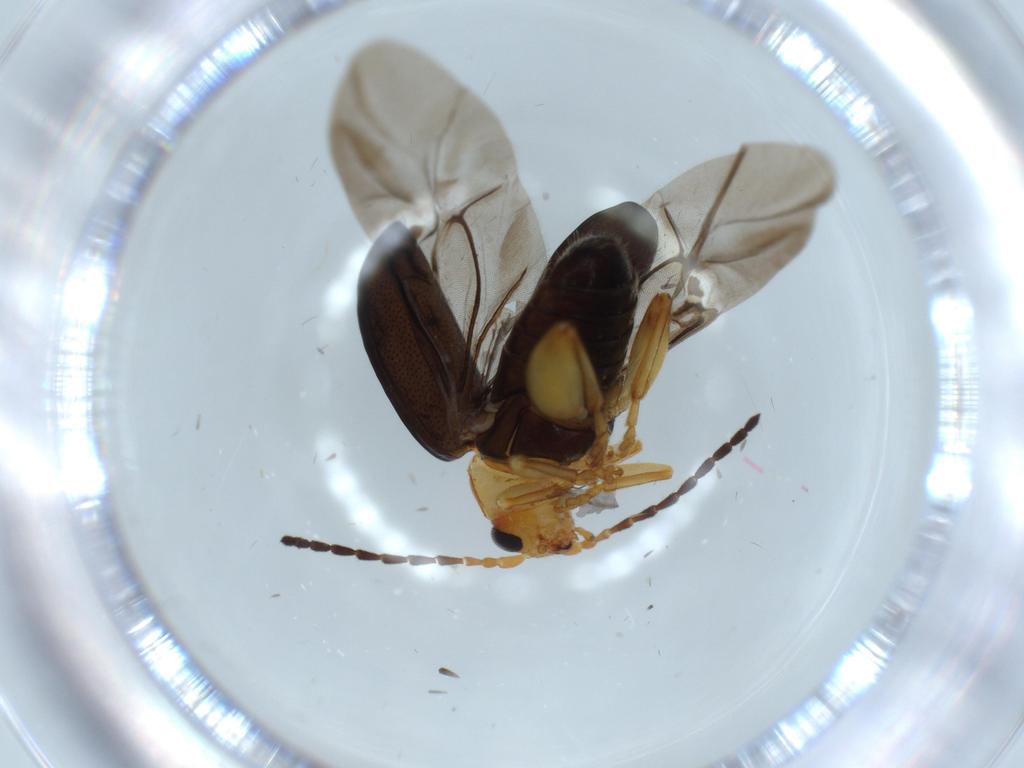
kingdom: Animalia
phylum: Arthropoda
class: Insecta
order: Coleoptera
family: Chrysomelidae
